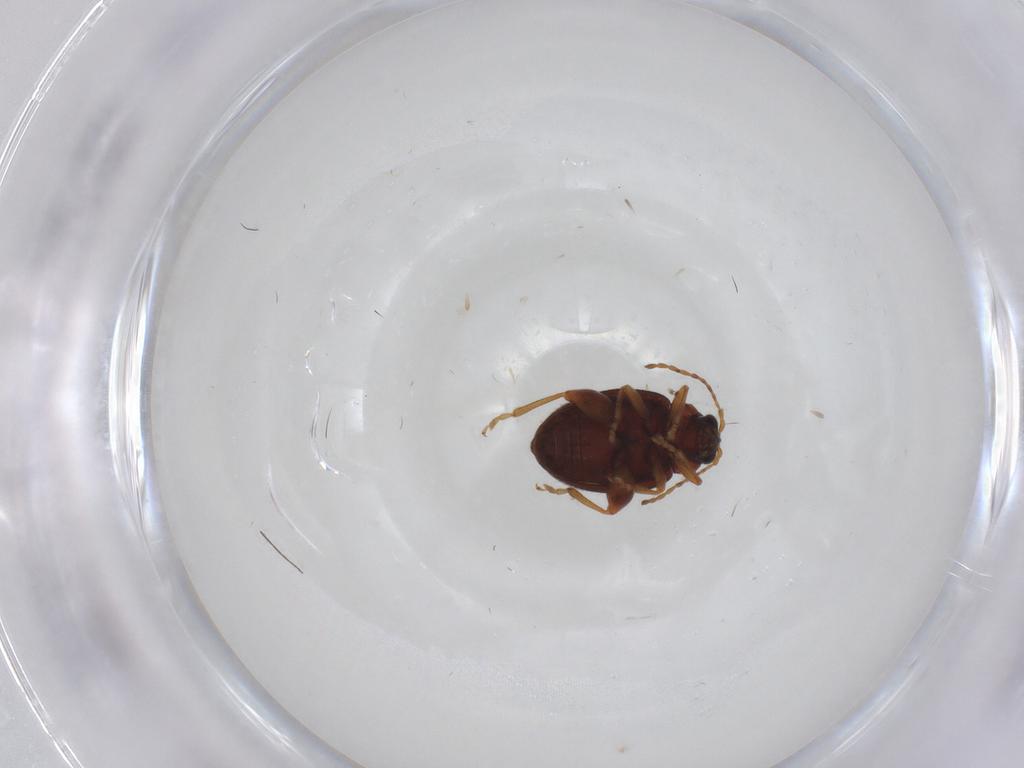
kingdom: Animalia
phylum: Arthropoda
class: Insecta
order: Coleoptera
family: Chrysomelidae
